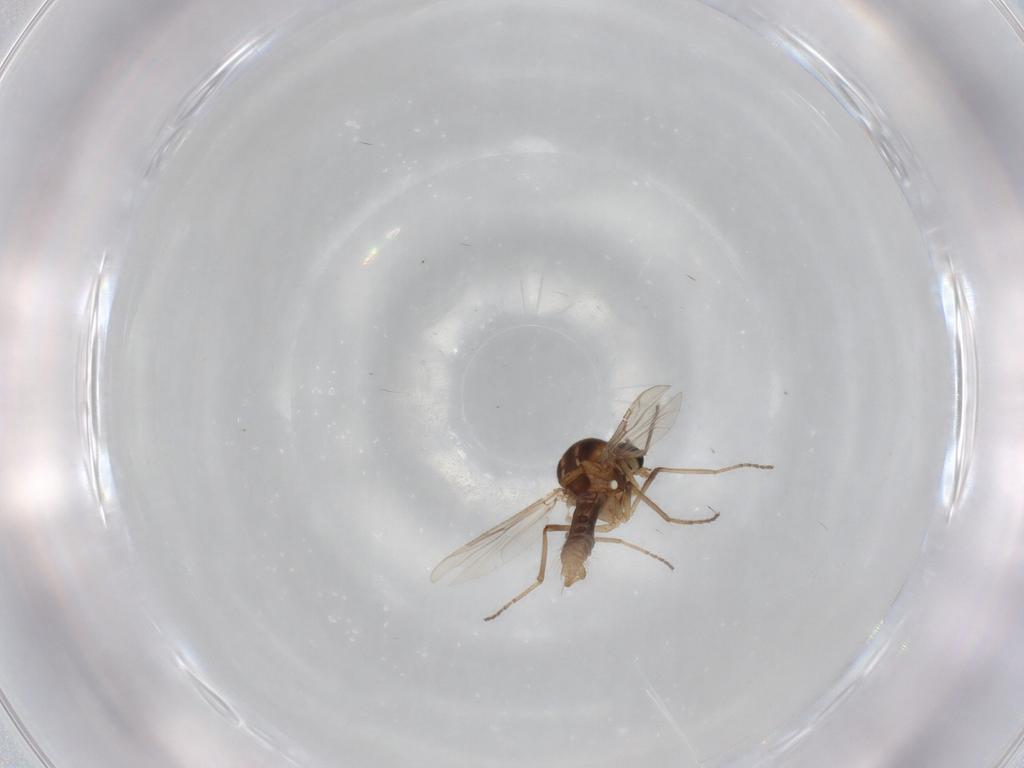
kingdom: Animalia
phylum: Arthropoda
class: Insecta
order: Diptera
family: Ceratopogonidae
